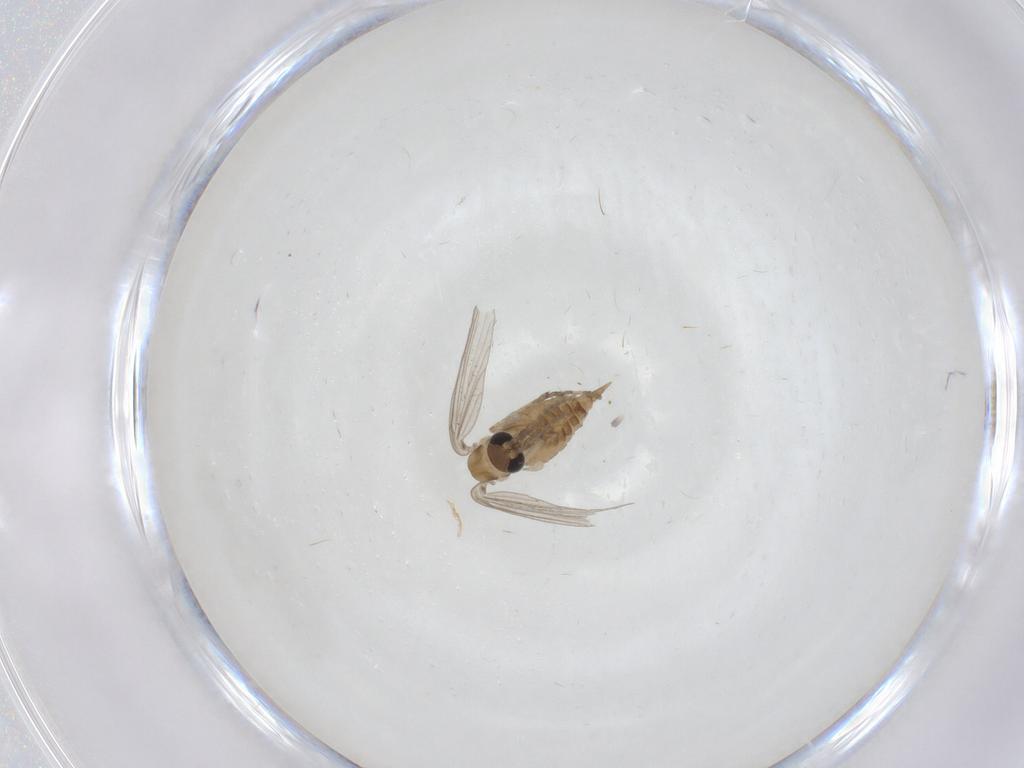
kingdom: Animalia
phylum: Arthropoda
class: Insecta
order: Diptera
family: Psychodidae
